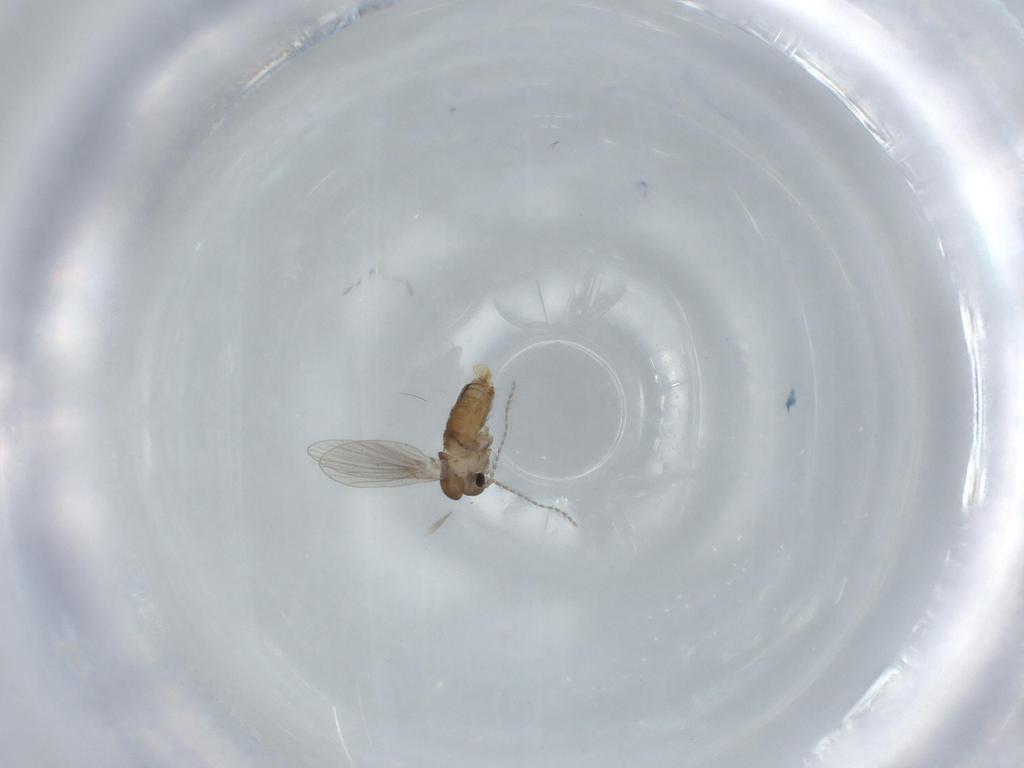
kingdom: Animalia
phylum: Arthropoda
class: Insecta
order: Diptera
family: Psychodidae
